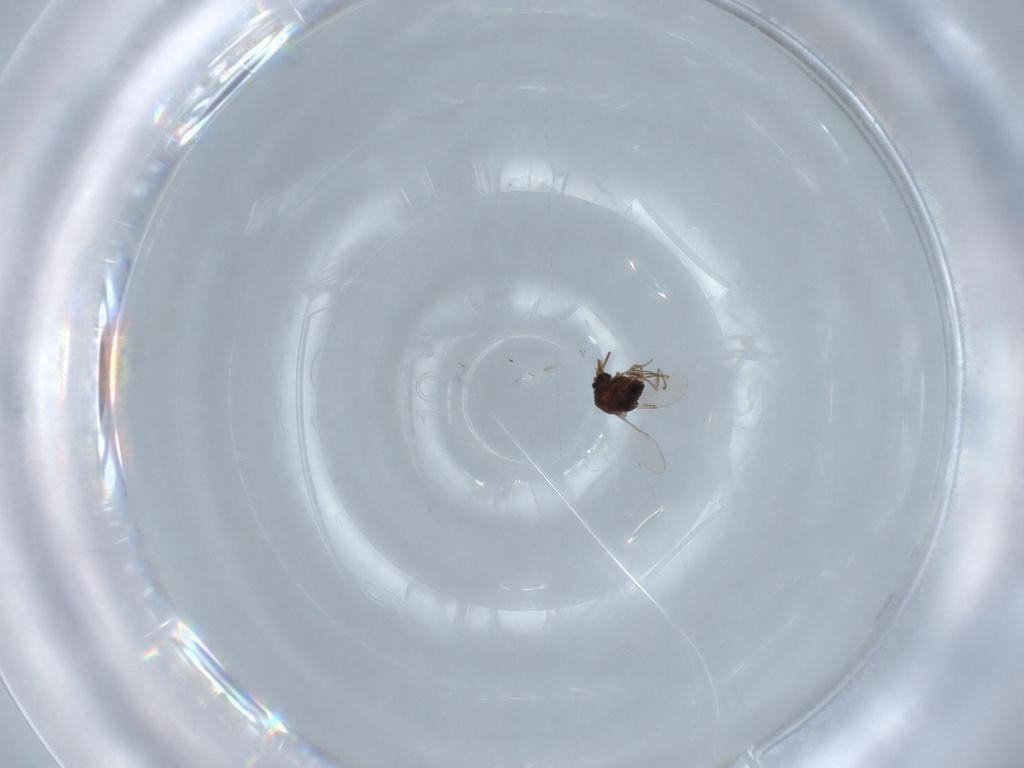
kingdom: Animalia
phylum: Arthropoda
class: Insecta
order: Diptera
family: Ceratopogonidae
